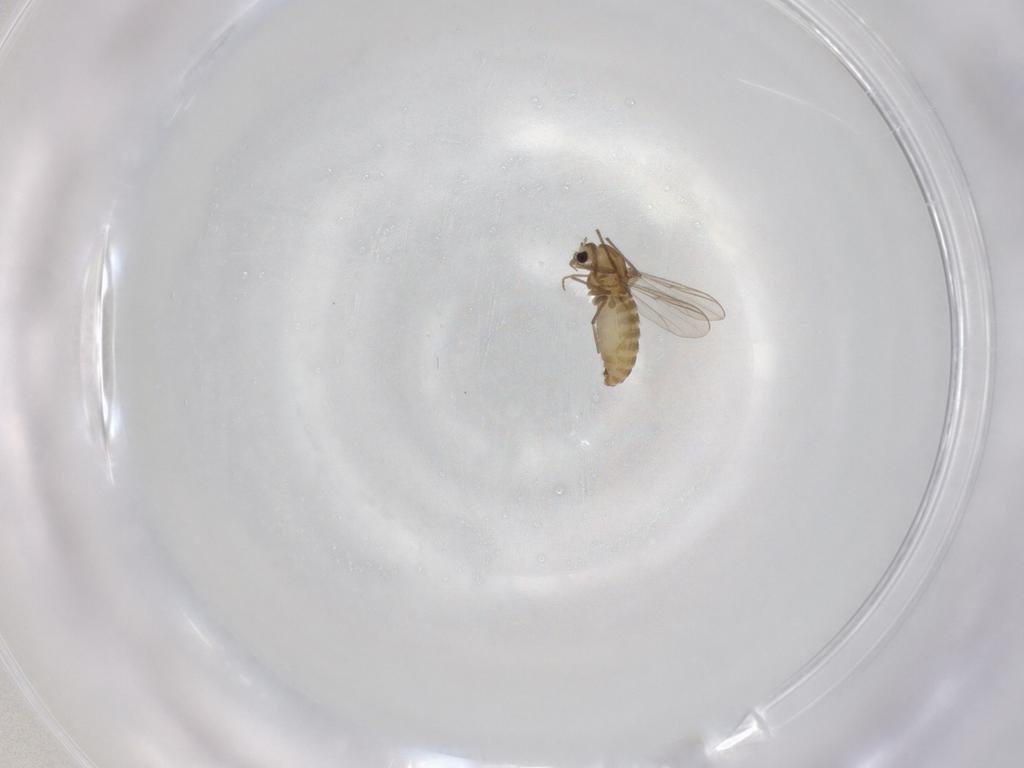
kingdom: Animalia
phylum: Arthropoda
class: Insecta
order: Diptera
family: Chironomidae
